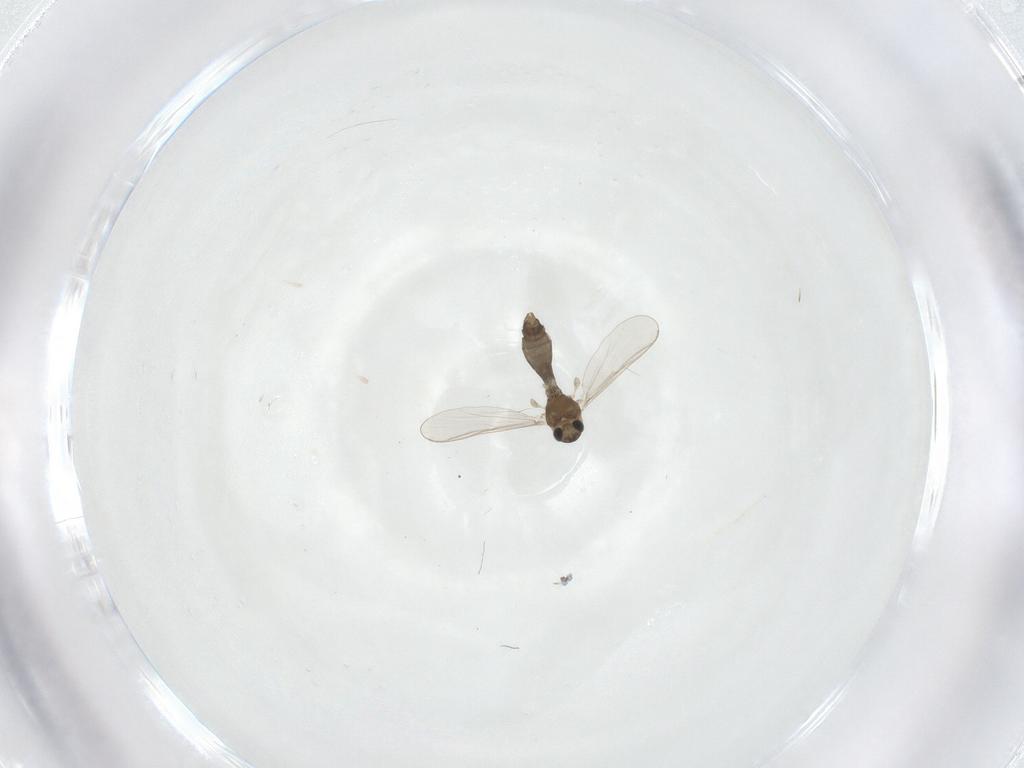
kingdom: Animalia
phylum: Arthropoda
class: Insecta
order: Diptera
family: Chironomidae
